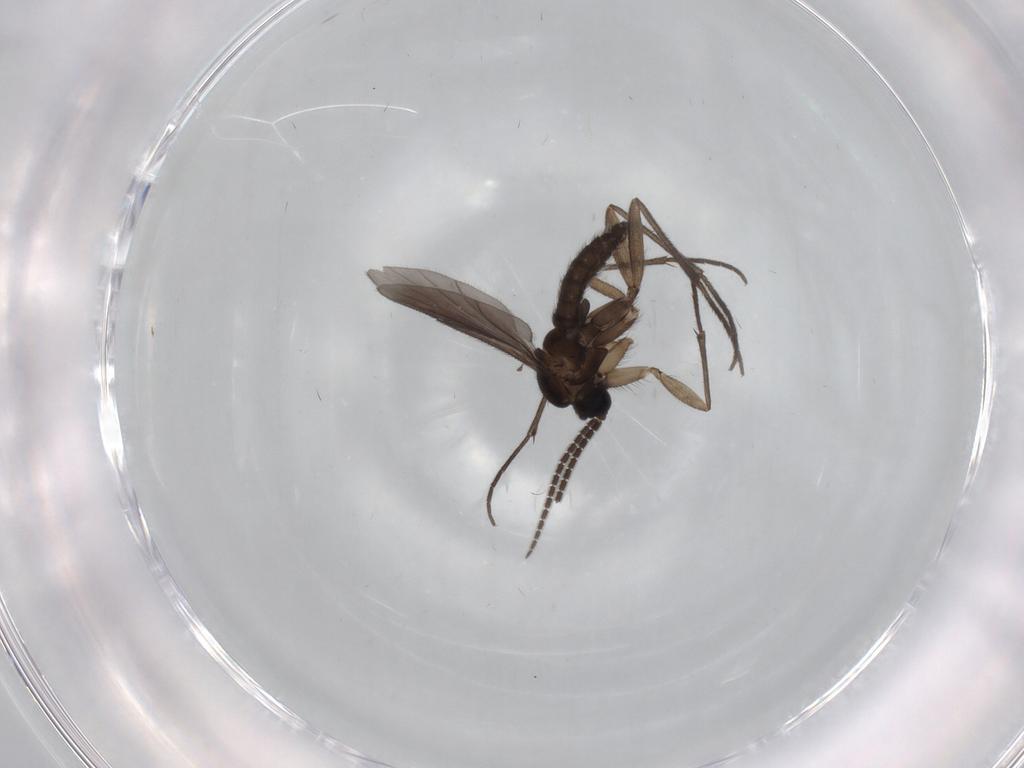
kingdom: Animalia
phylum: Arthropoda
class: Insecta
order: Diptera
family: Sciaridae
